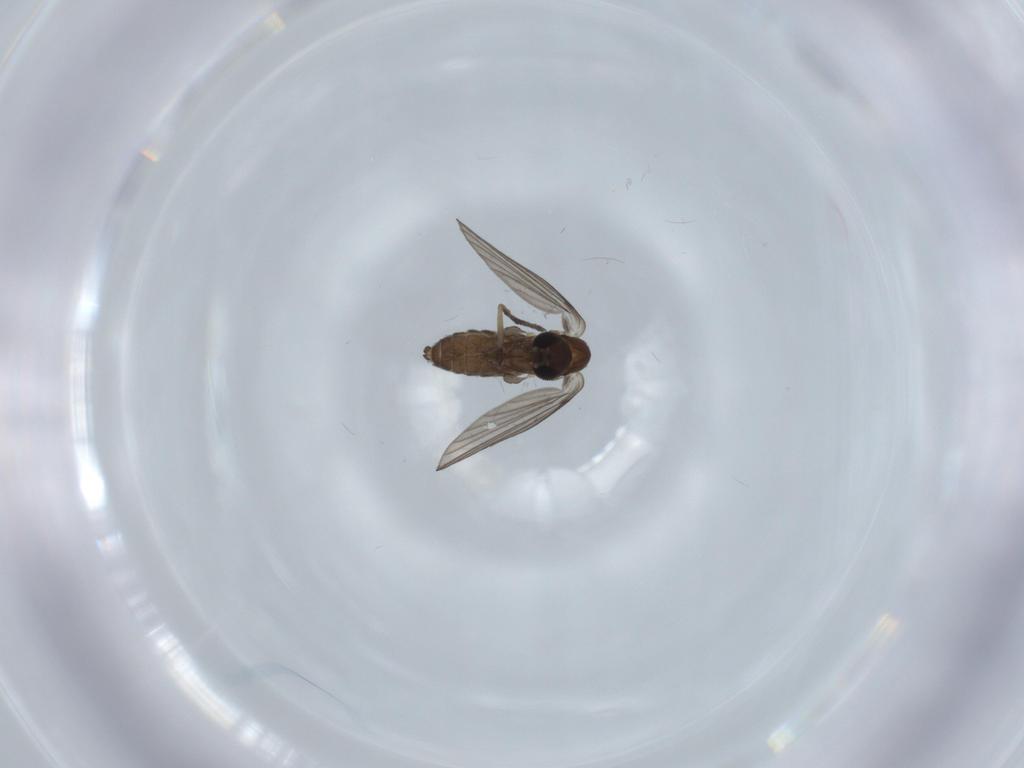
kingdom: Animalia
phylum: Arthropoda
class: Insecta
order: Diptera
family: Psychodidae
